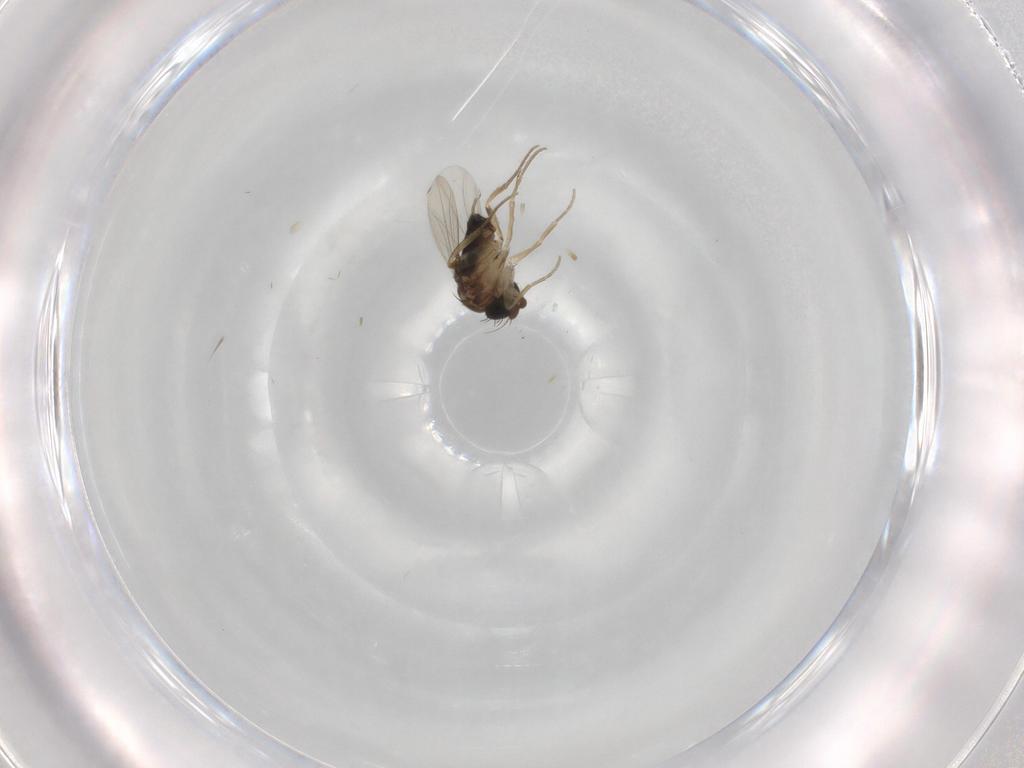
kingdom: Animalia
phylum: Arthropoda
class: Insecta
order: Diptera
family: Phoridae
